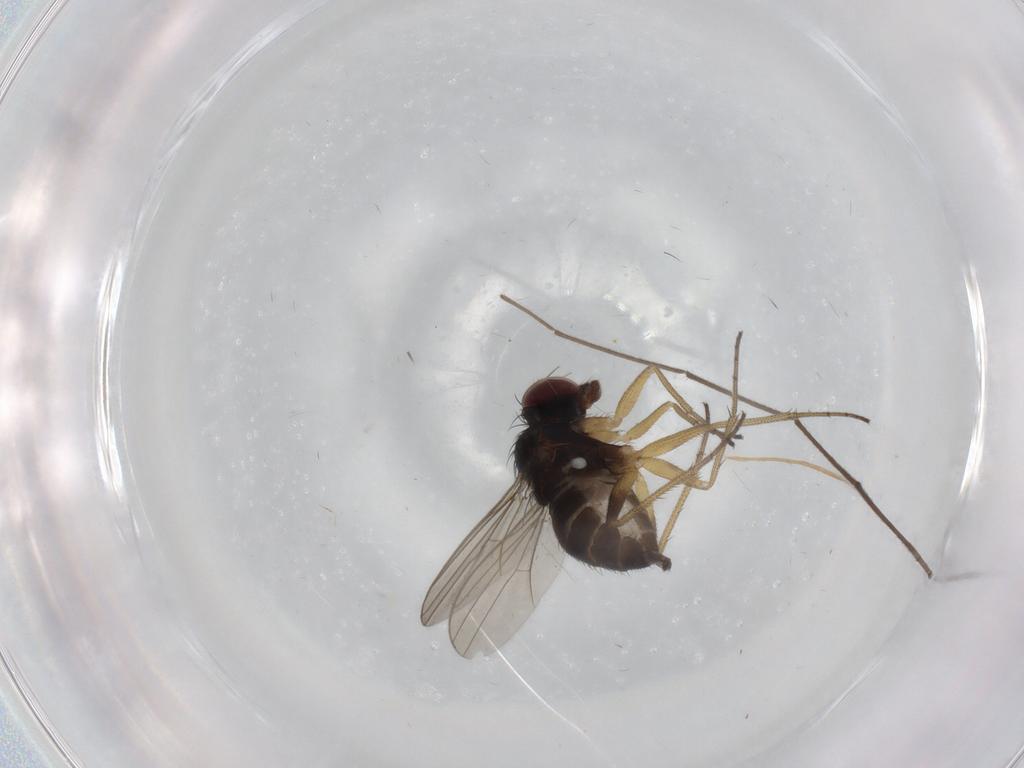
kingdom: Animalia
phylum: Arthropoda
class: Insecta
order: Diptera
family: Dolichopodidae
